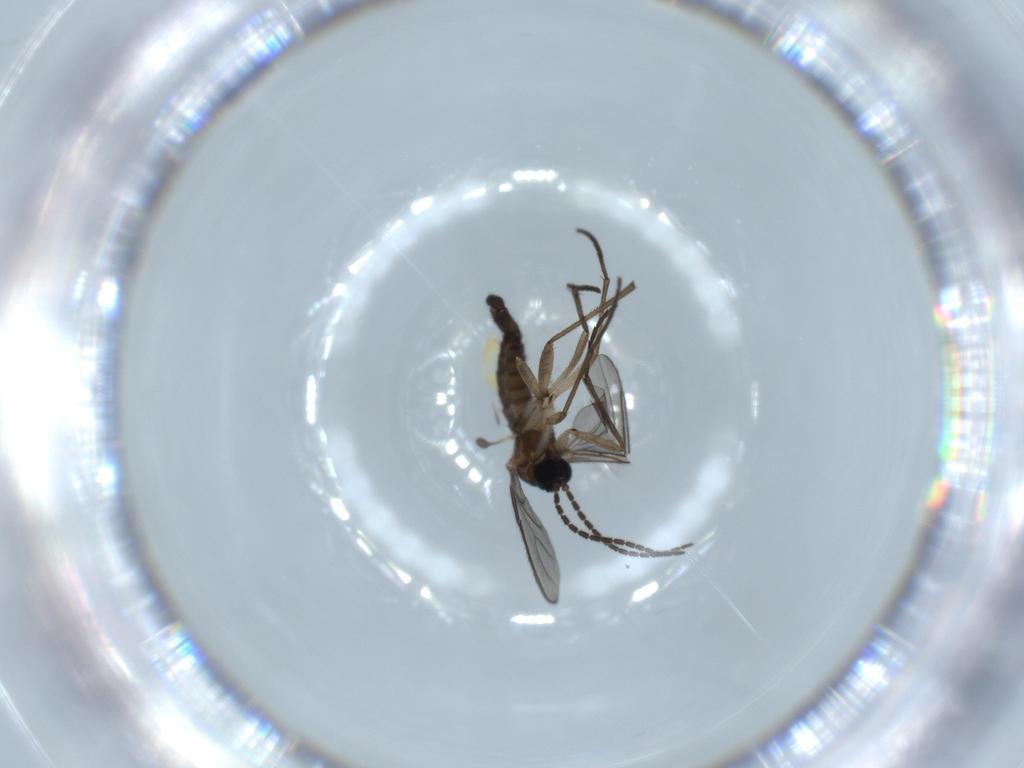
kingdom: Animalia
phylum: Arthropoda
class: Insecta
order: Diptera
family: Sciaridae
